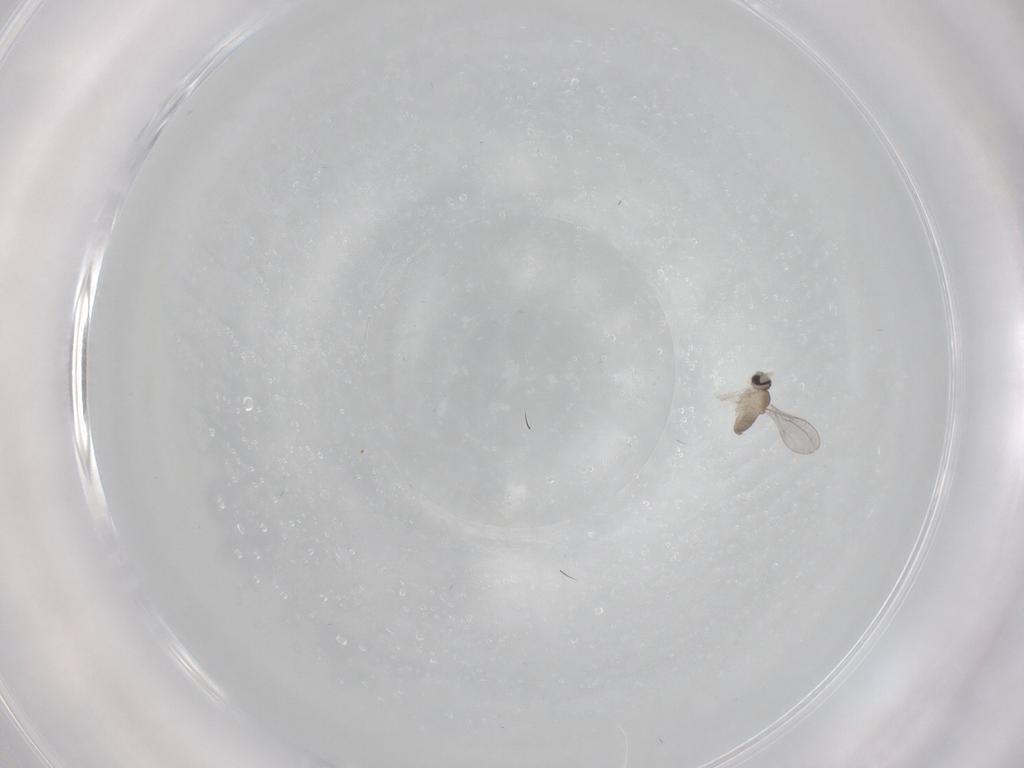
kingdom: Animalia
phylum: Arthropoda
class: Insecta
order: Diptera
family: Cecidomyiidae
